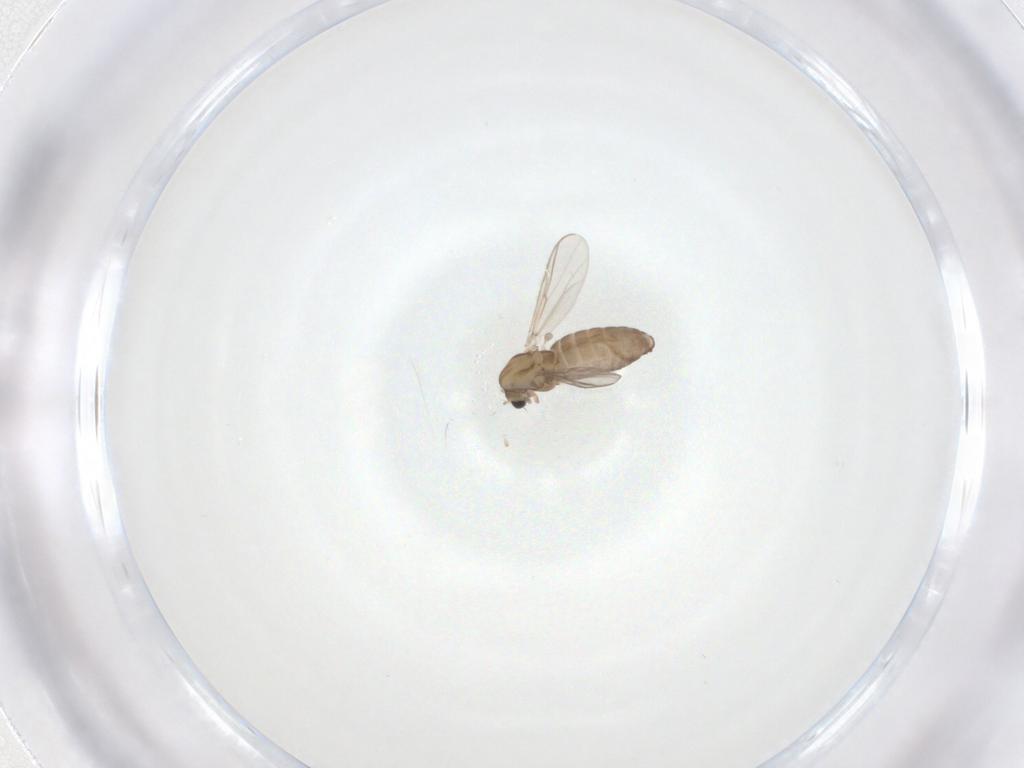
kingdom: Animalia
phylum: Arthropoda
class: Insecta
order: Diptera
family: Chironomidae
